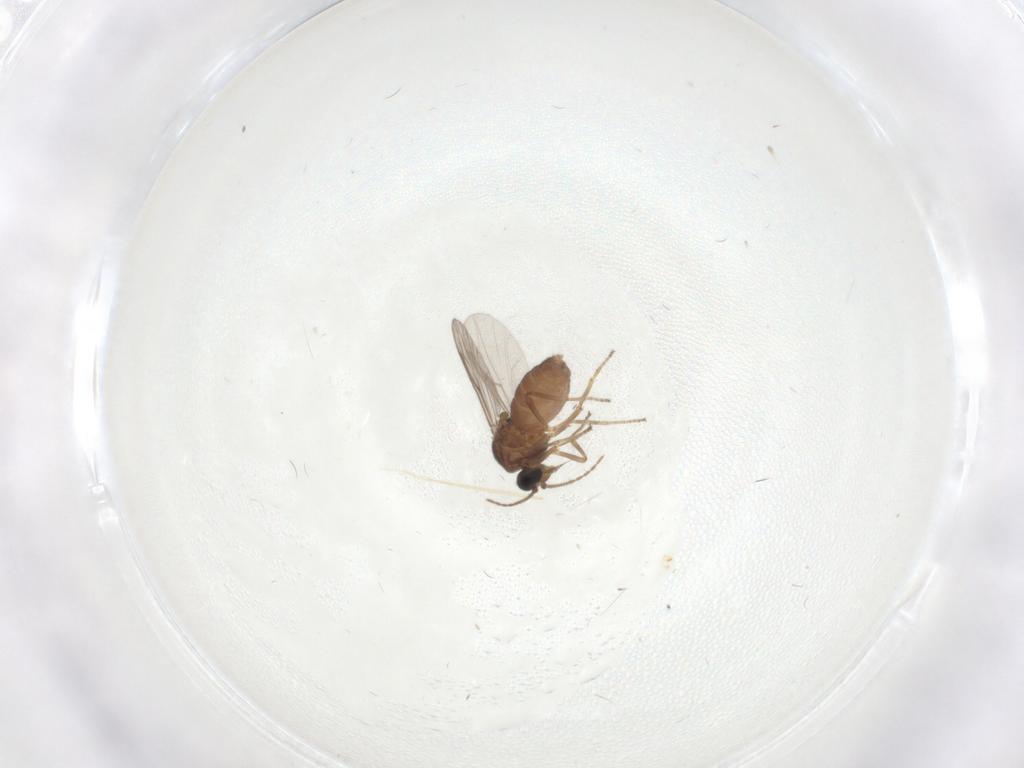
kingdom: Animalia
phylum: Arthropoda
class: Insecta
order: Diptera
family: Ceratopogonidae
